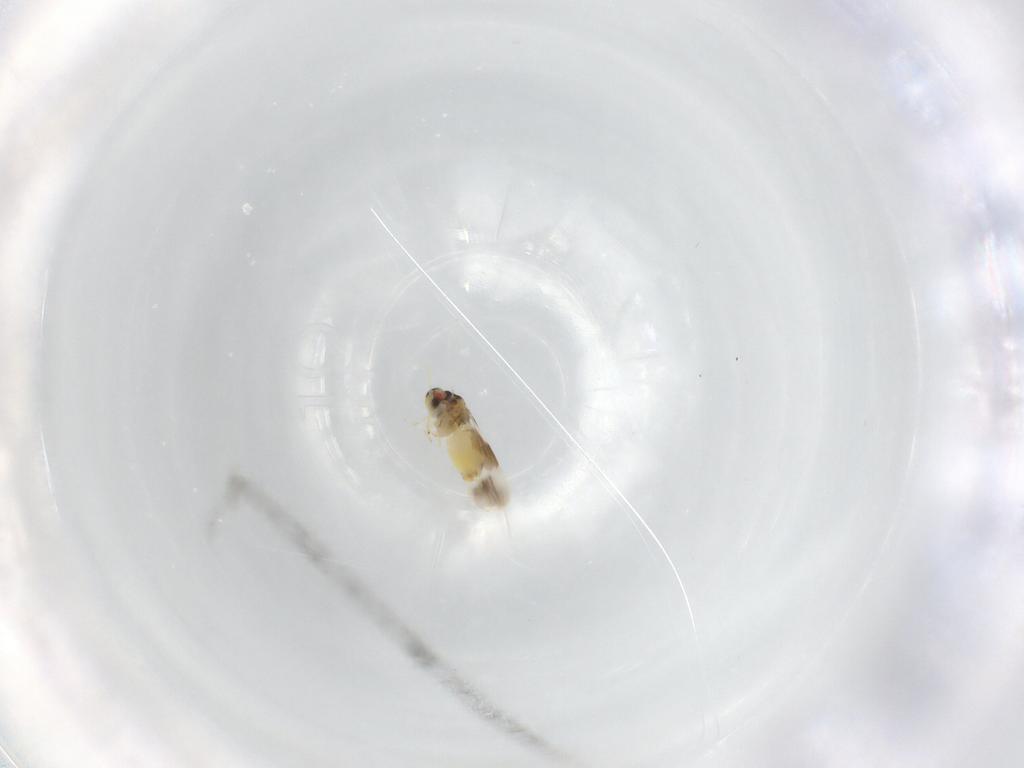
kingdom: Animalia
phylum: Arthropoda
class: Insecta
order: Hemiptera
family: Aleyrodidae
